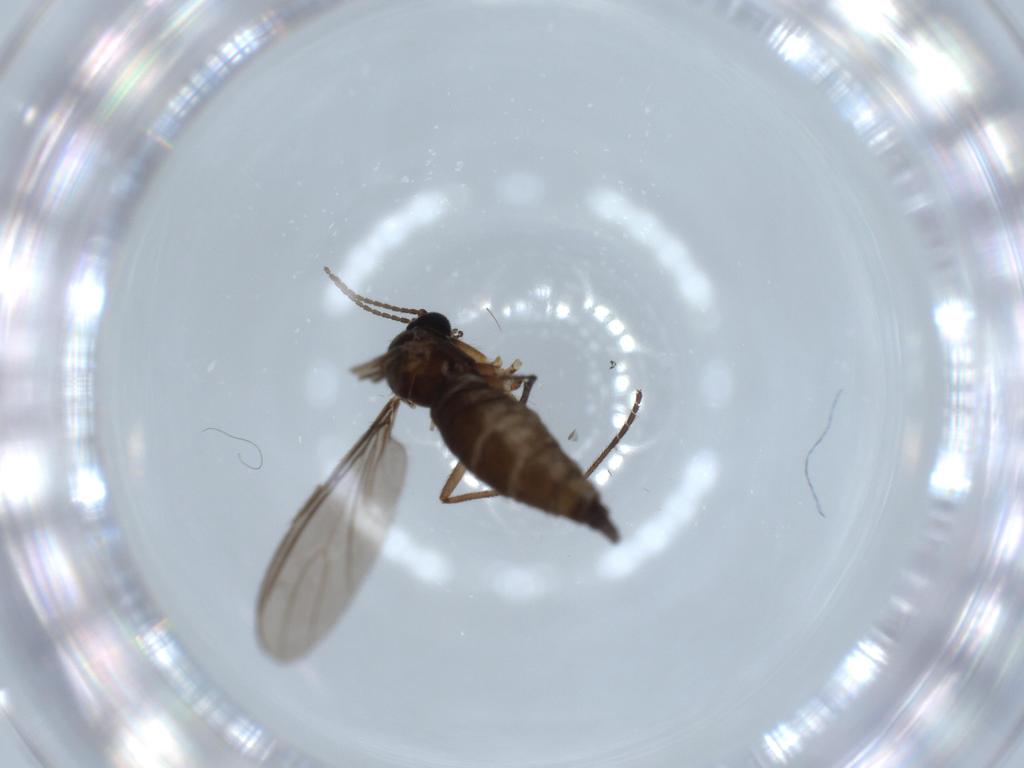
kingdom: Animalia
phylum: Arthropoda
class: Insecta
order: Diptera
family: Sciaridae
